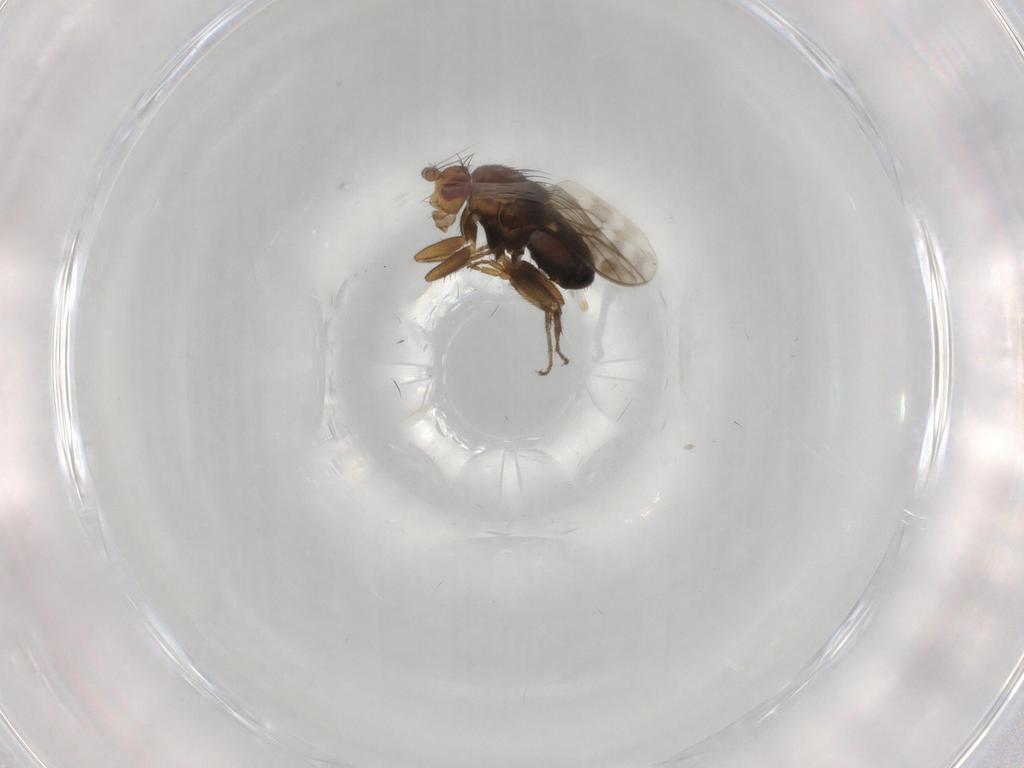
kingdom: Animalia
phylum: Arthropoda
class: Insecta
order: Diptera
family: Sphaeroceridae
